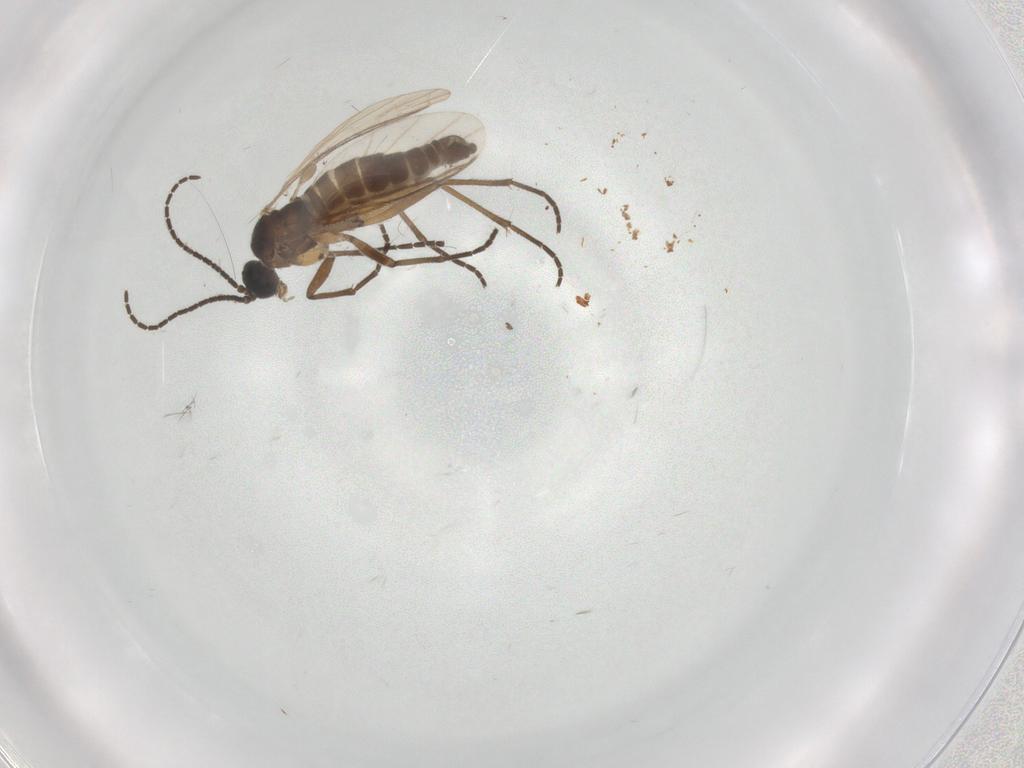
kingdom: Animalia
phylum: Arthropoda
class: Insecta
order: Diptera
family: Sciaridae
